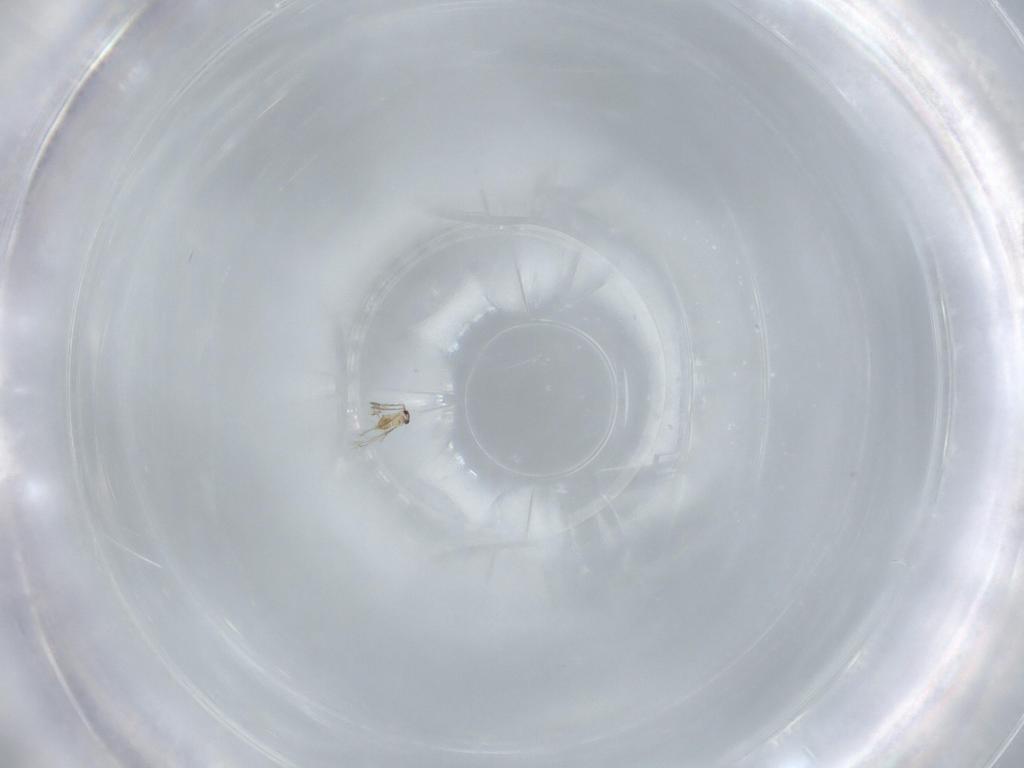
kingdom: Animalia
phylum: Arthropoda
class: Insecta
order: Hymenoptera
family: Mymaridae
